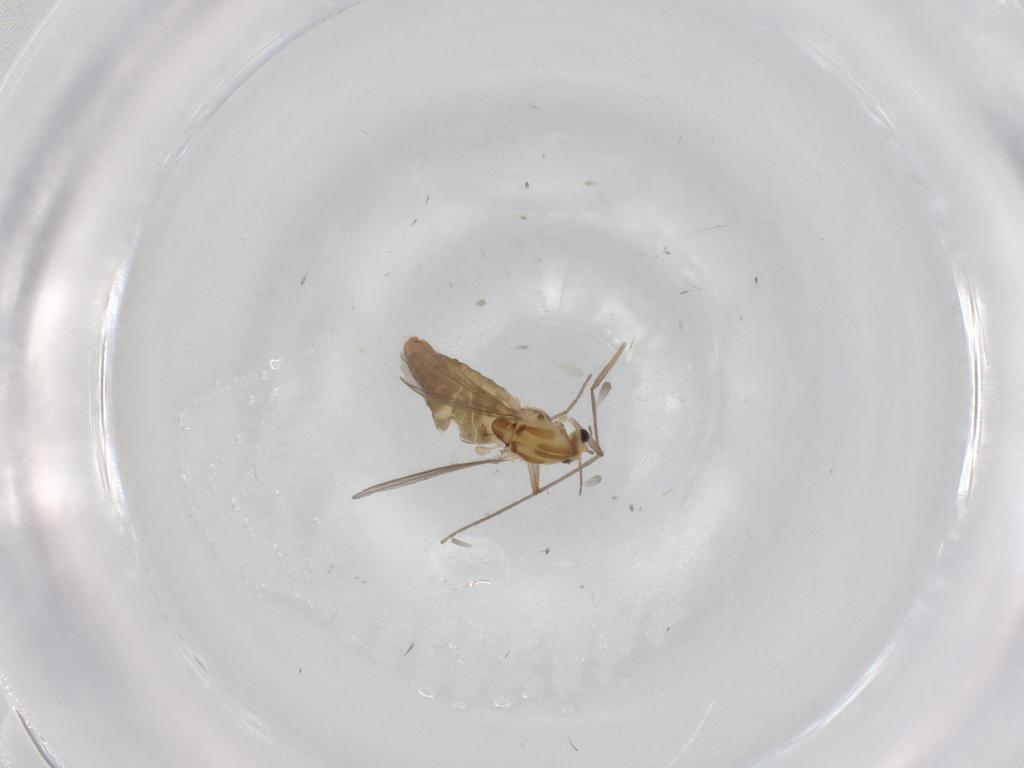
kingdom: Animalia
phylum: Arthropoda
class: Insecta
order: Diptera
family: Chironomidae
